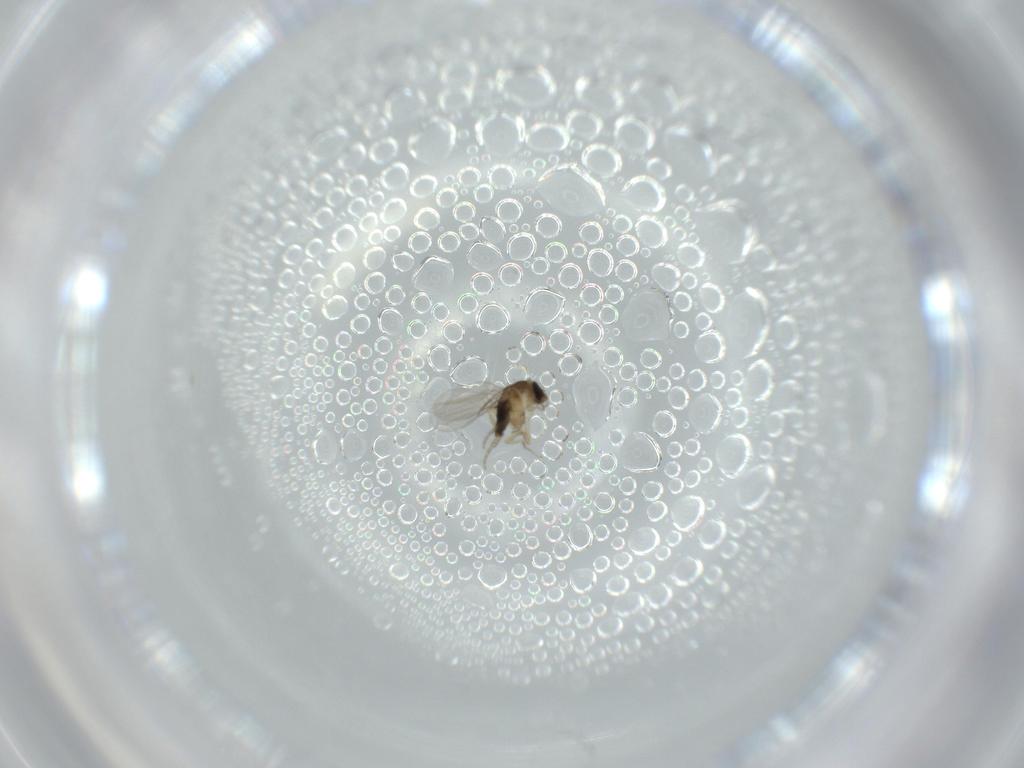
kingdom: Animalia
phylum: Arthropoda
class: Insecta
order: Diptera
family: Phoridae
